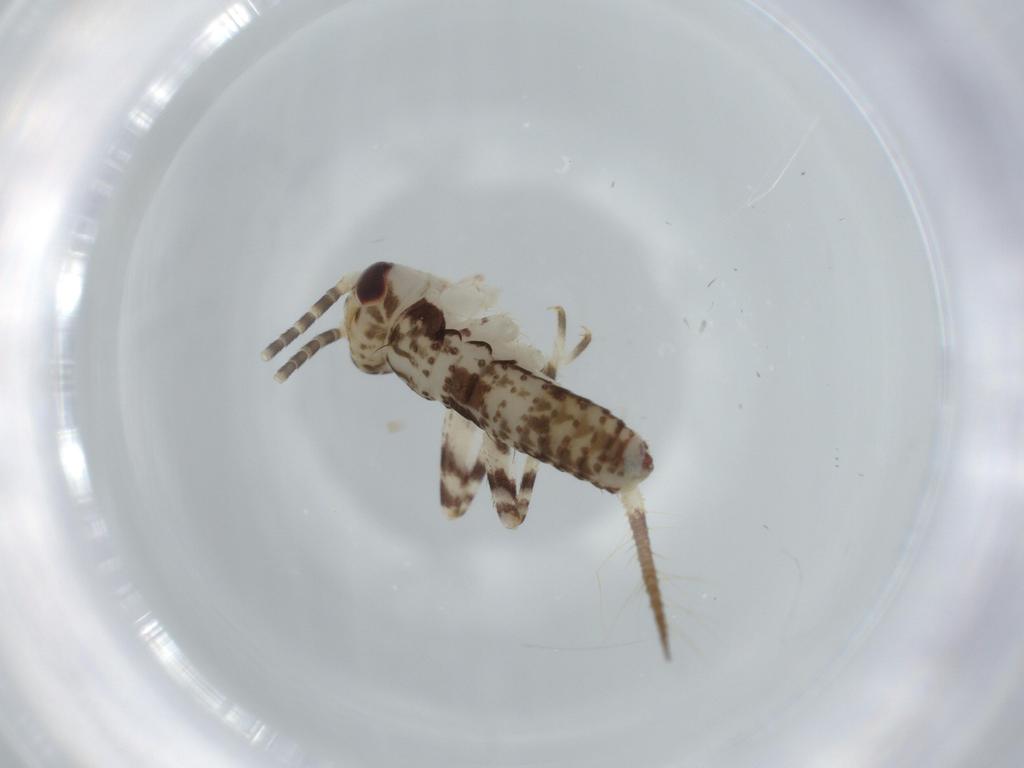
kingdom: Animalia
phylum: Arthropoda
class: Insecta
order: Orthoptera
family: Gryllidae
